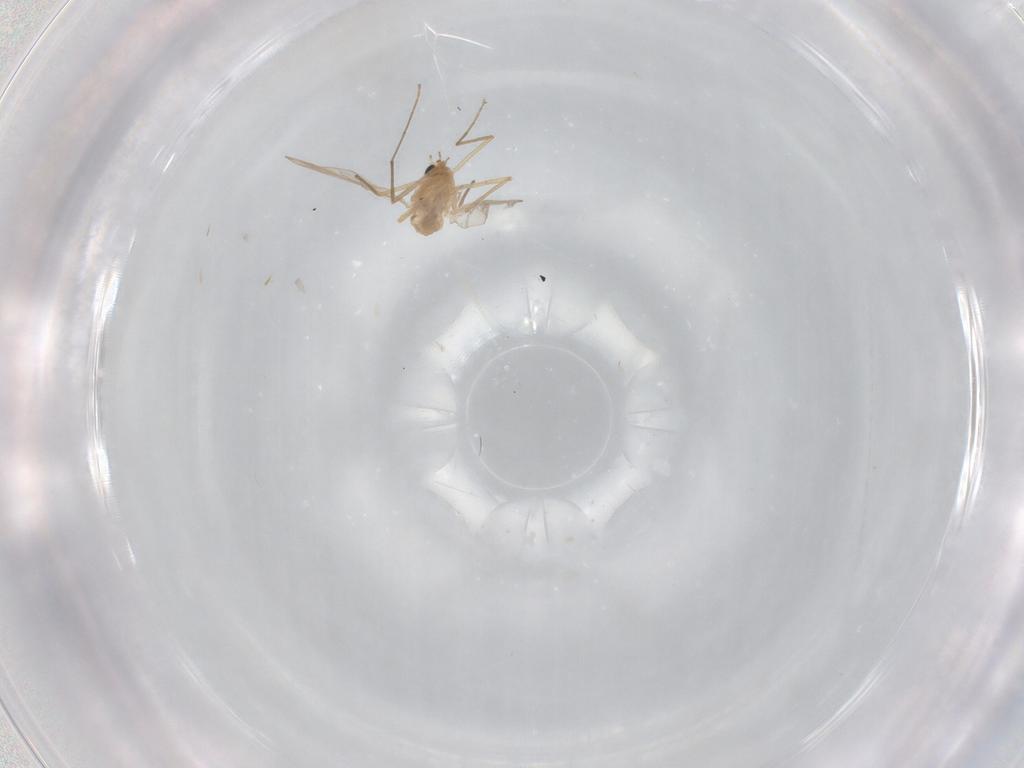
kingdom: Animalia
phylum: Arthropoda
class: Insecta
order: Diptera
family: Chironomidae
